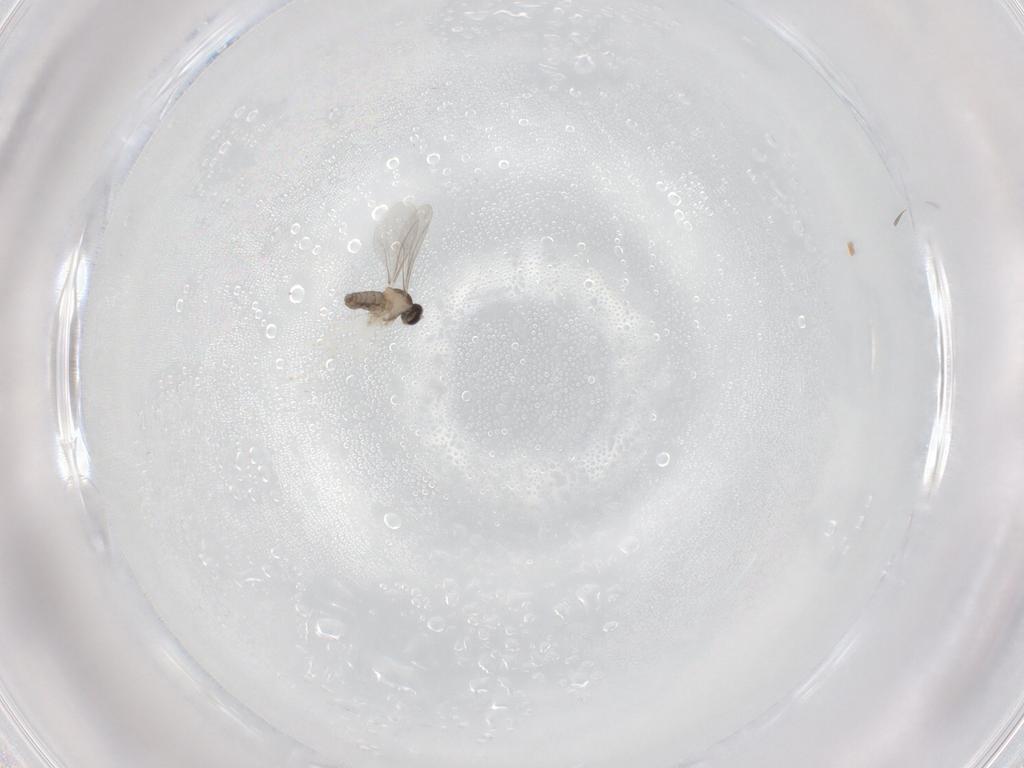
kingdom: Animalia
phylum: Arthropoda
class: Insecta
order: Diptera
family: Cecidomyiidae
